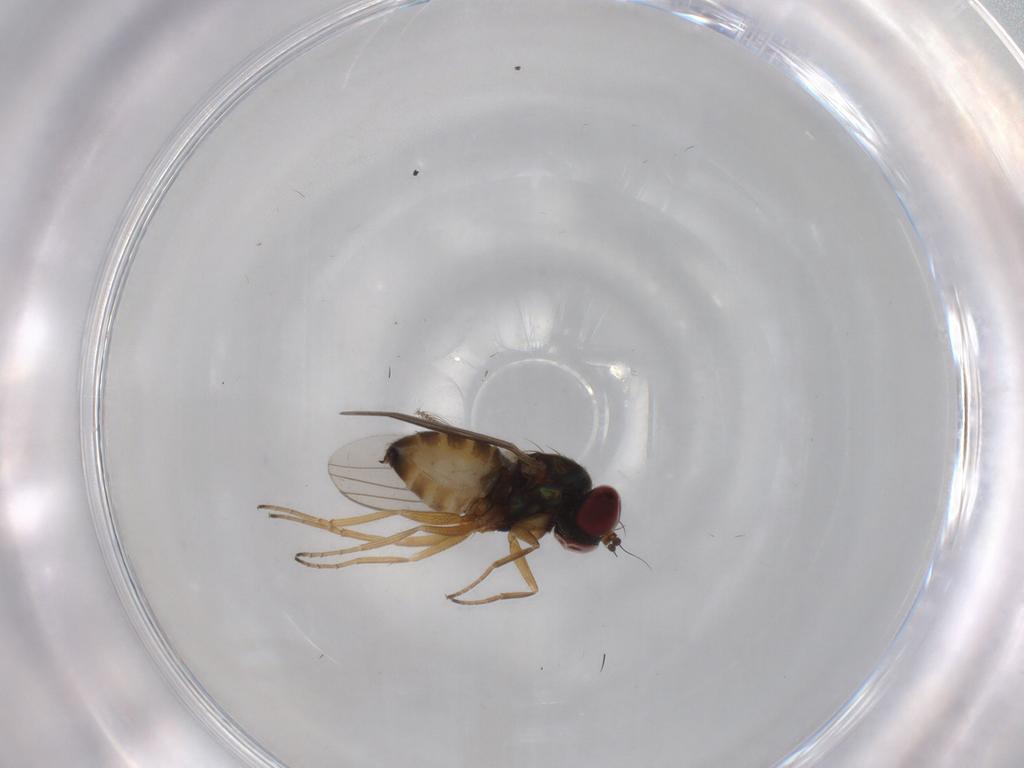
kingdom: Animalia
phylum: Arthropoda
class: Insecta
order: Diptera
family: Dolichopodidae
